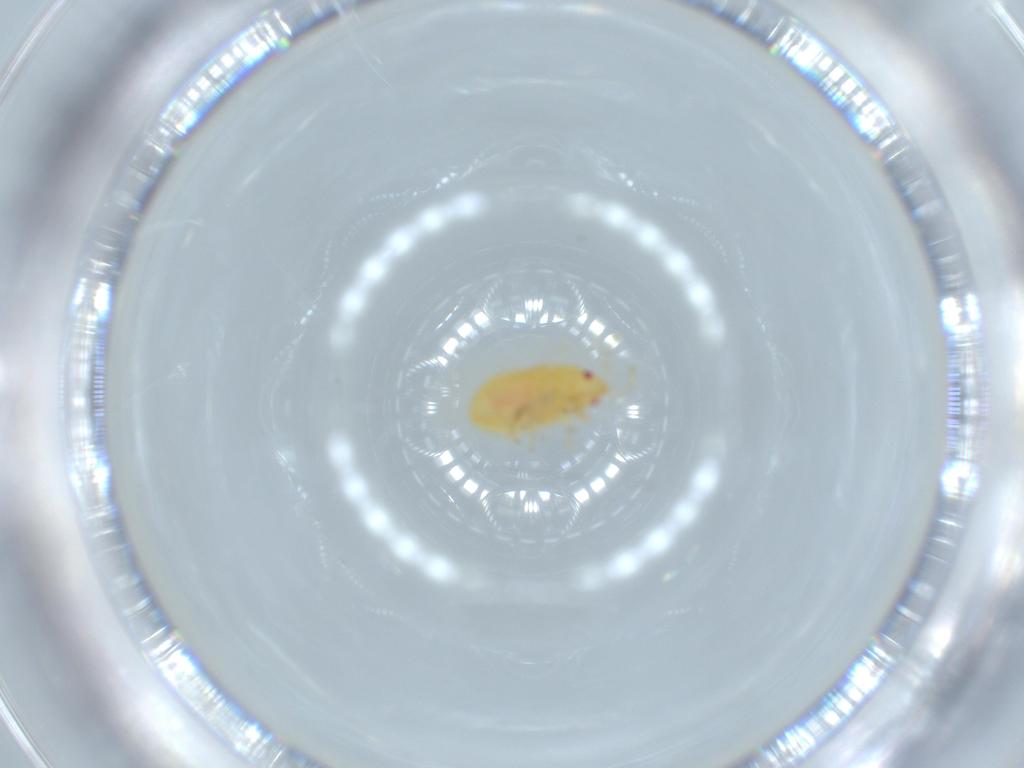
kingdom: Animalia
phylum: Arthropoda
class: Insecta
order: Hemiptera
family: Anthocoridae
